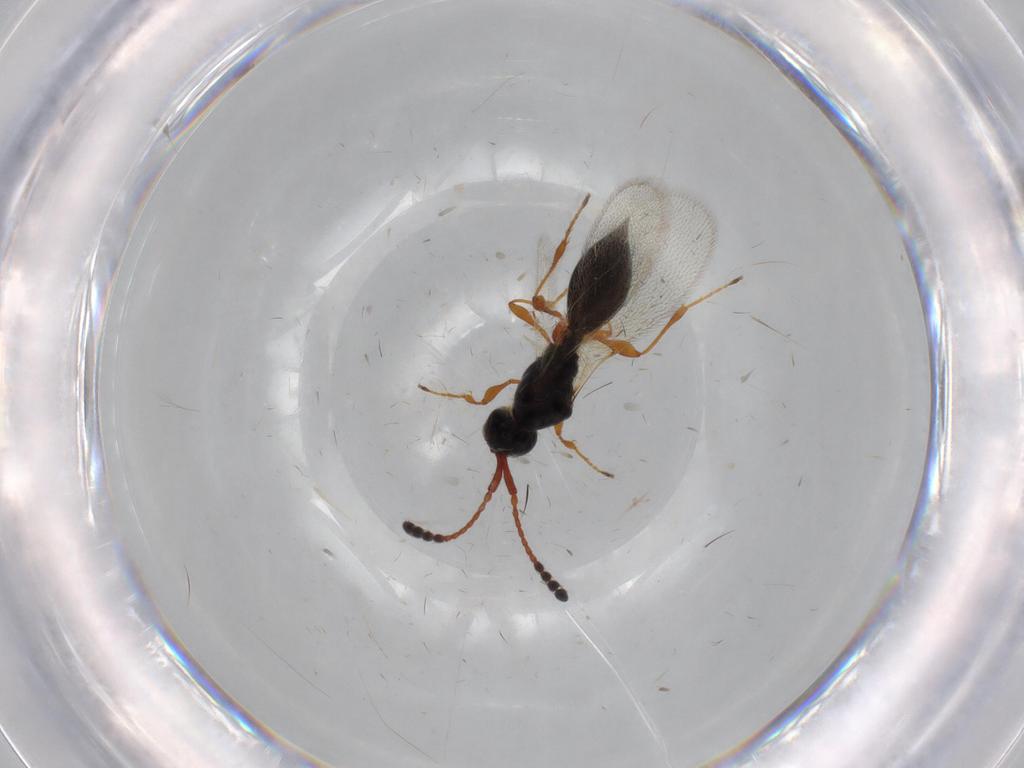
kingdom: Animalia
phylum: Arthropoda
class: Insecta
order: Hymenoptera
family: Diapriidae
